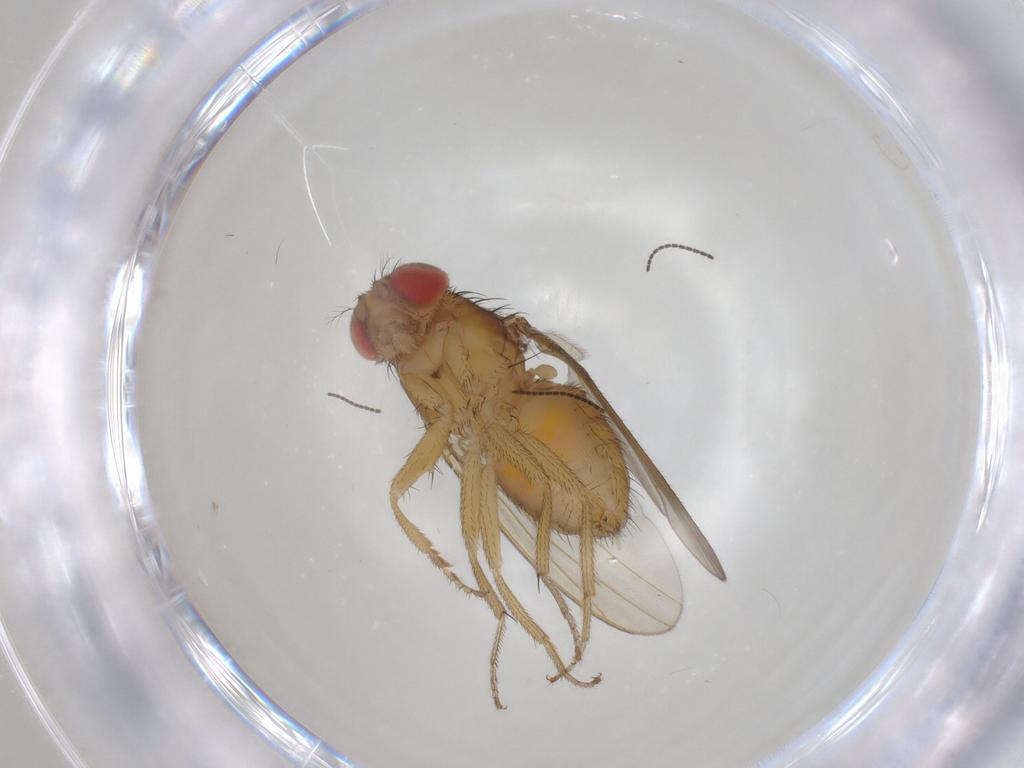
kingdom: Animalia
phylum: Arthropoda
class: Insecta
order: Diptera
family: Drosophilidae
